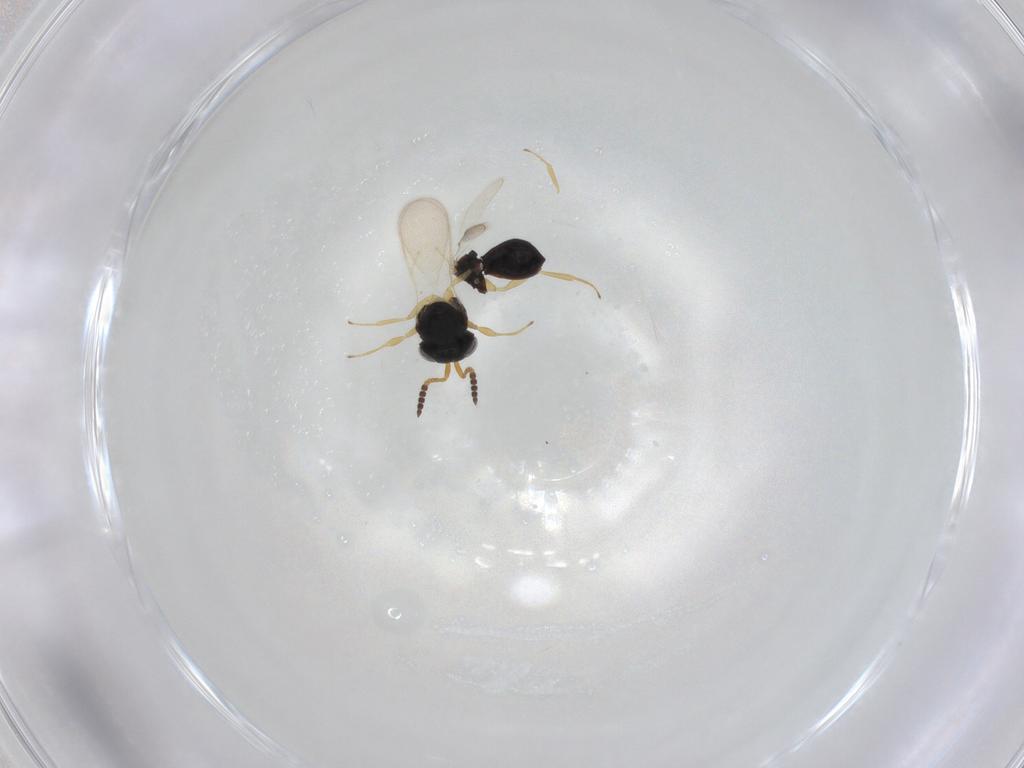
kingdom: Animalia
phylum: Arthropoda
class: Insecta
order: Hymenoptera
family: Scelionidae
